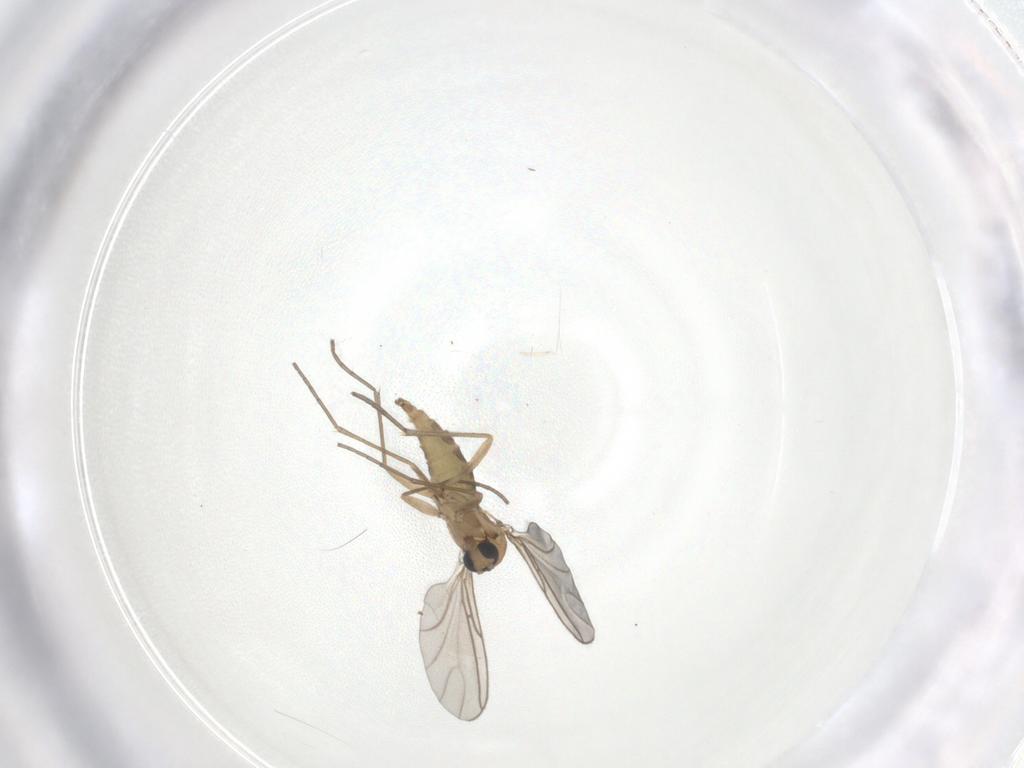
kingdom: Animalia
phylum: Arthropoda
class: Insecta
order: Diptera
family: Sciaridae
